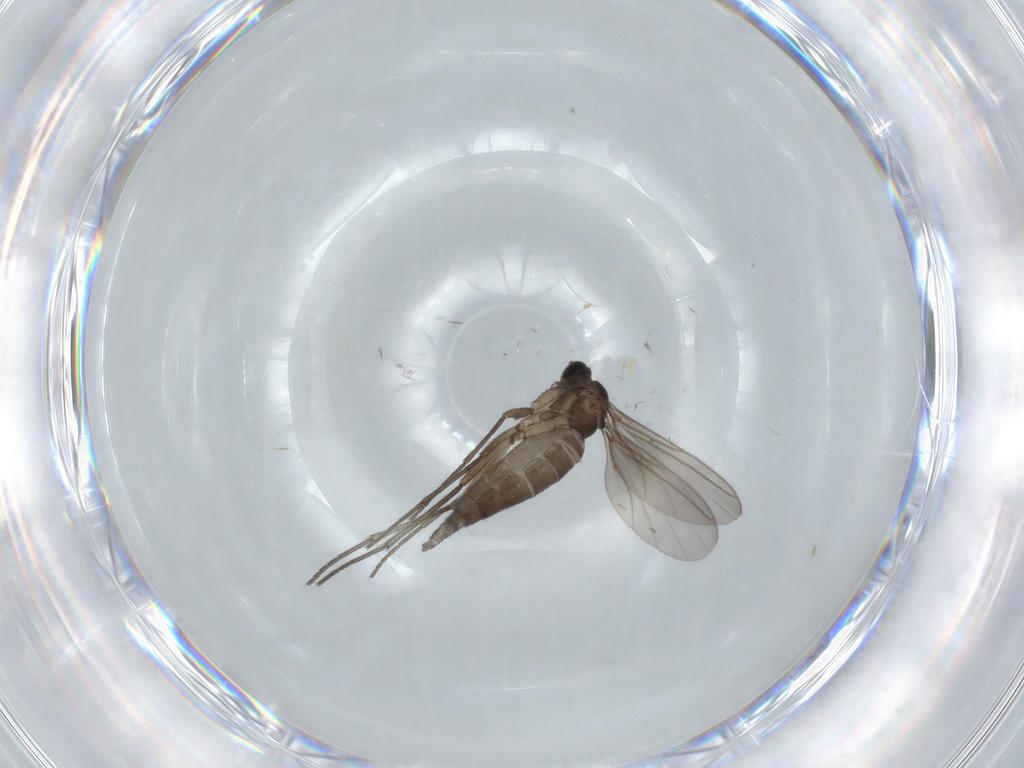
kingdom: Animalia
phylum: Arthropoda
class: Insecta
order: Diptera
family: Sciaridae
